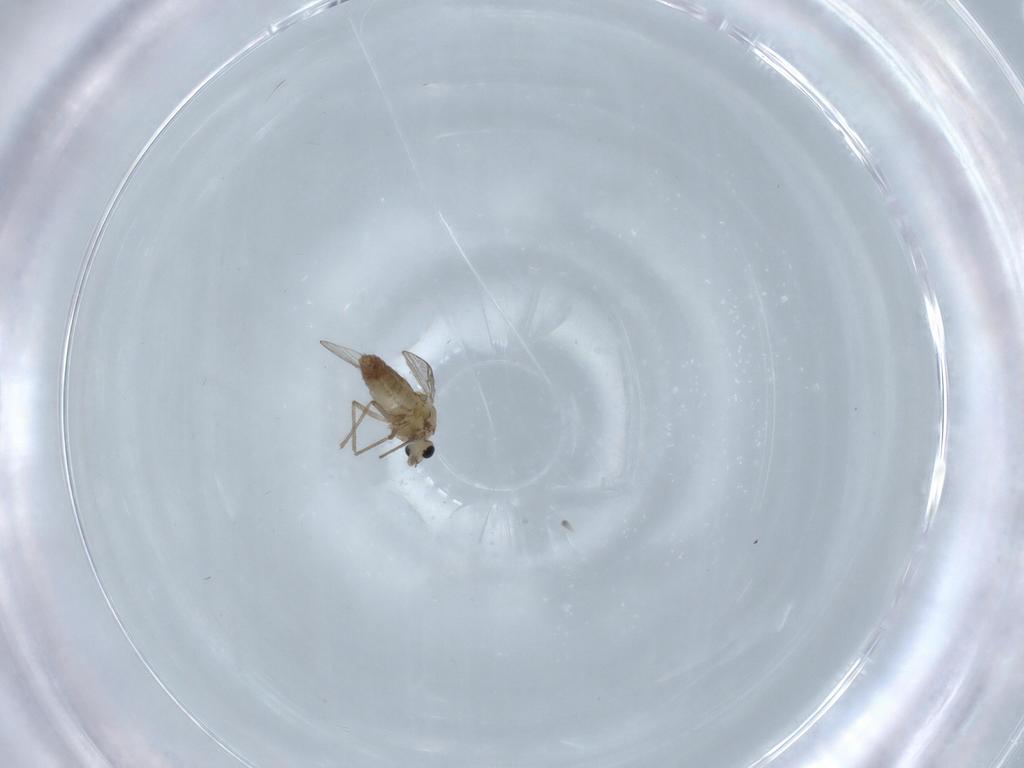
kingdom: Animalia
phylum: Arthropoda
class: Insecta
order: Diptera
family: Chironomidae
